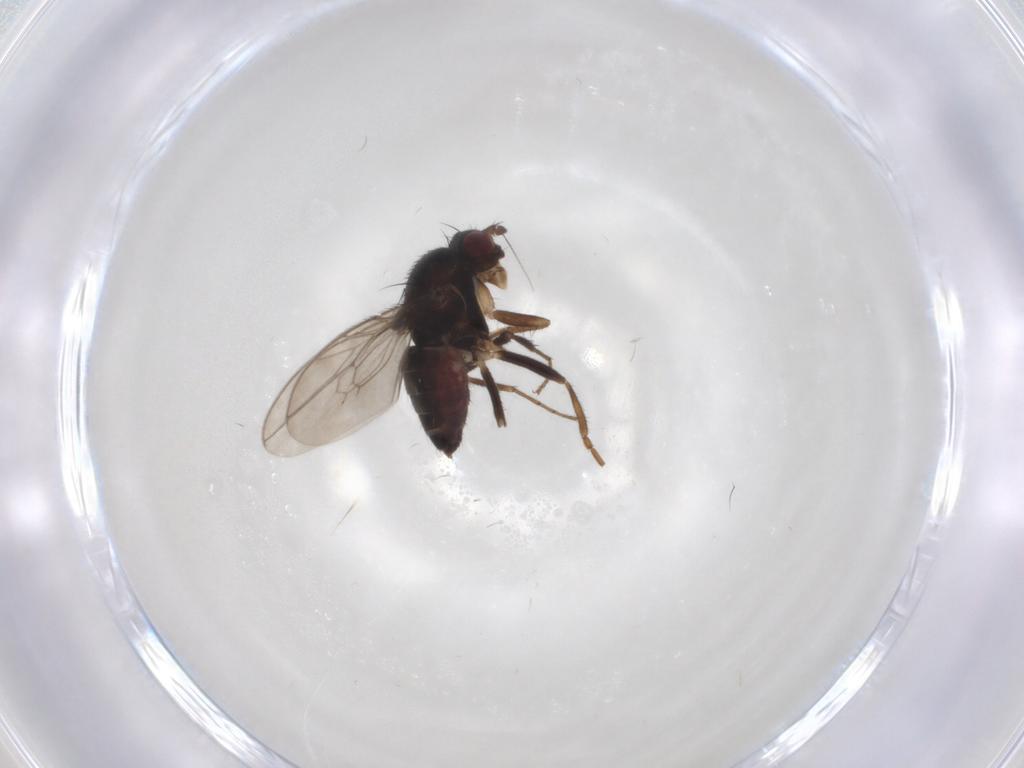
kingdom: Animalia
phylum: Arthropoda
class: Insecta
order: Diptera
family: Sphaeroceridae
